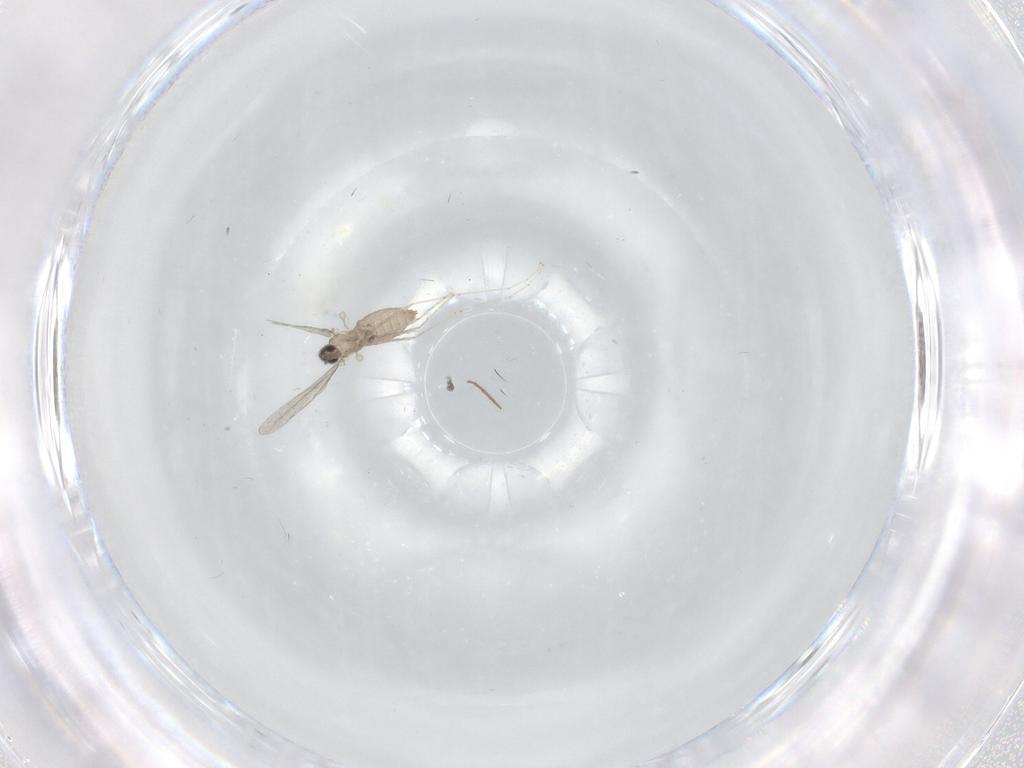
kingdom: Animalia
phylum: Arthropoda
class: Insecta
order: Diptera
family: Cecidomyiidae
